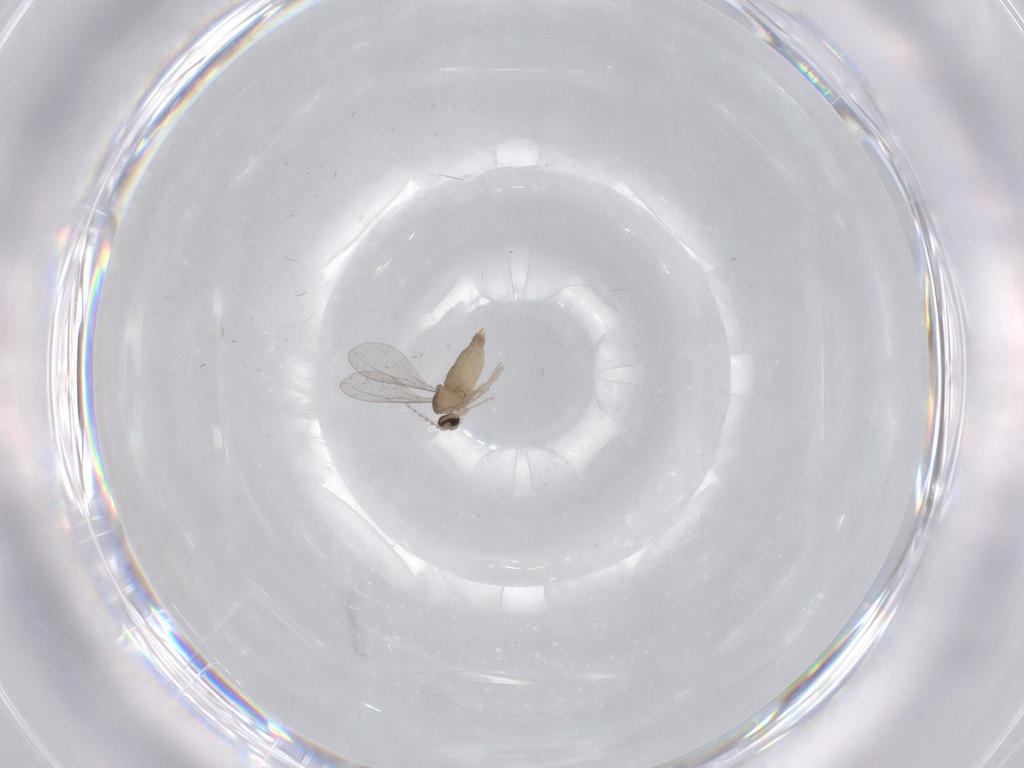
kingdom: Animalia
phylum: Arthropoda
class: Insecta
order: Diptera
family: Cecidomyiidae
